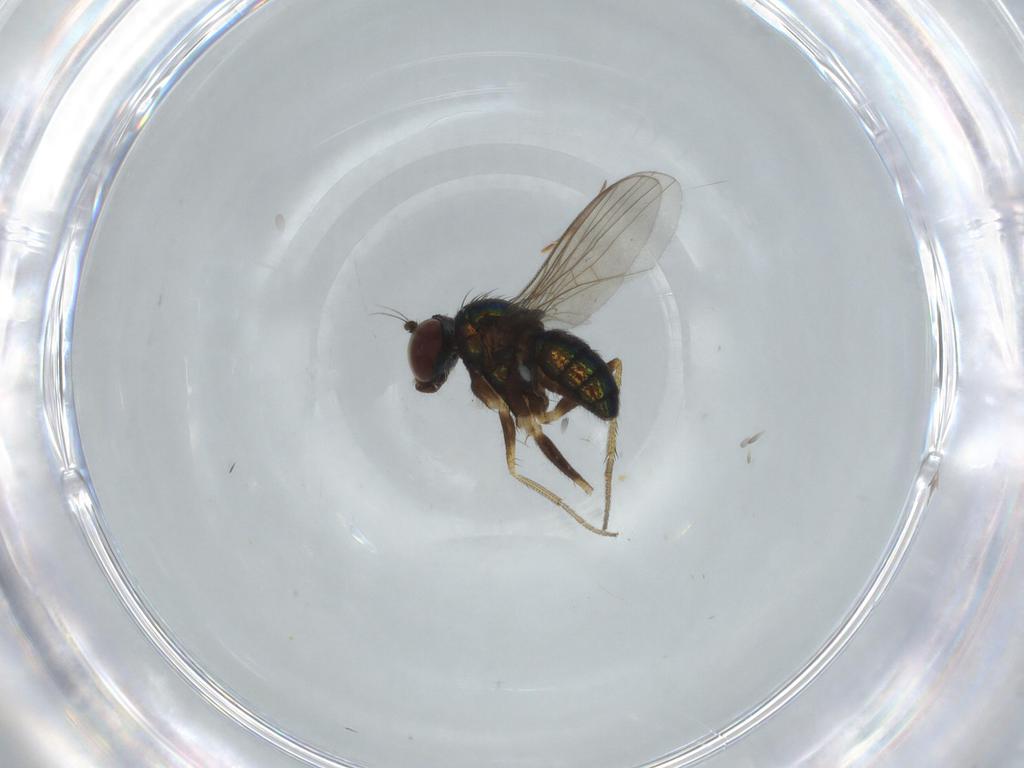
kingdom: Animalia
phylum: Arthropoda
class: Insecta
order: Diptera
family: Dolichopodidae
